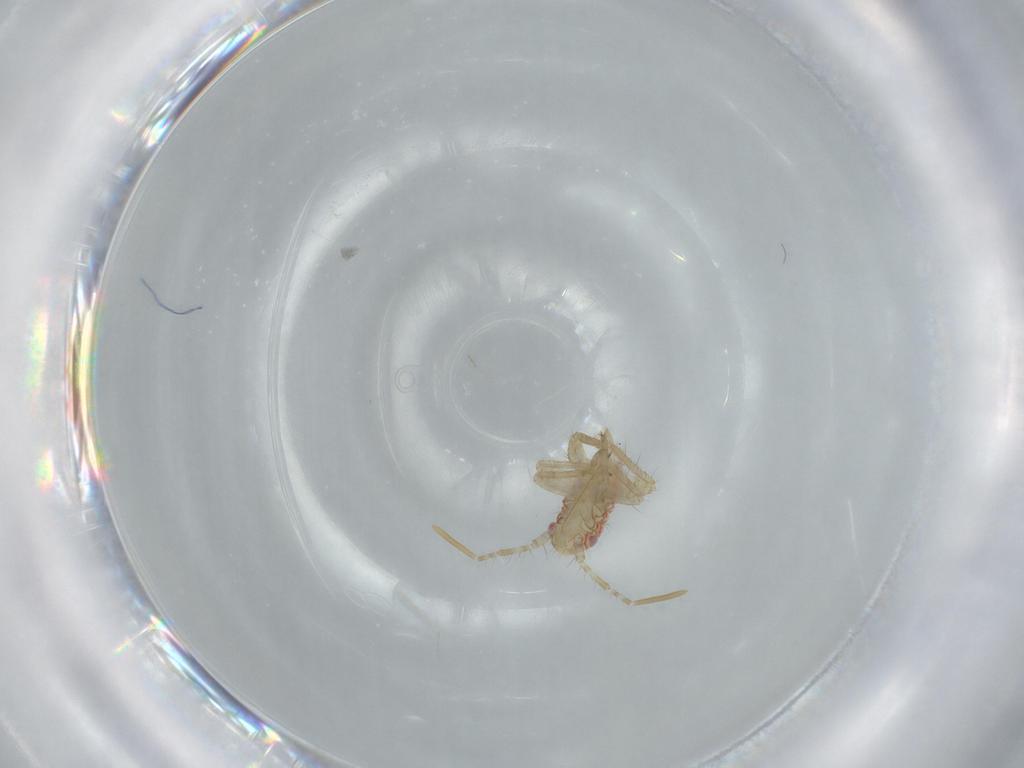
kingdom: Animalia
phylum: Arthropoda
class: Insecta
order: Hemiptera
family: Miridae
